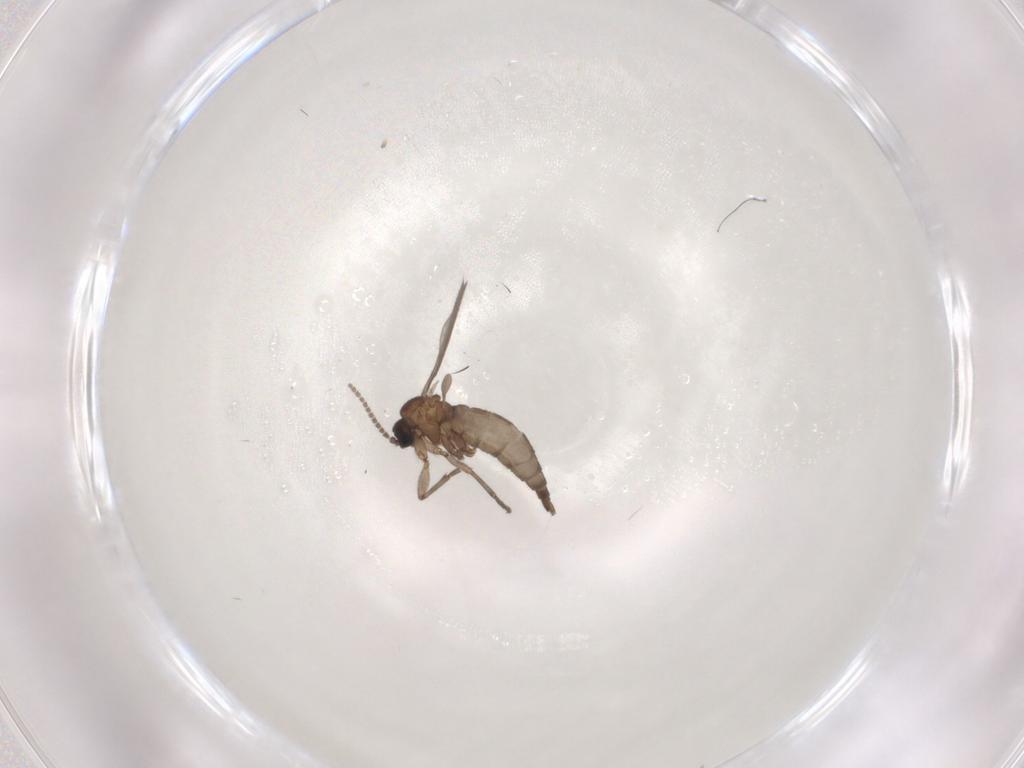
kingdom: Animalia
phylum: Arthropoda
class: Insecta
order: Diptera
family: Sciaridae
